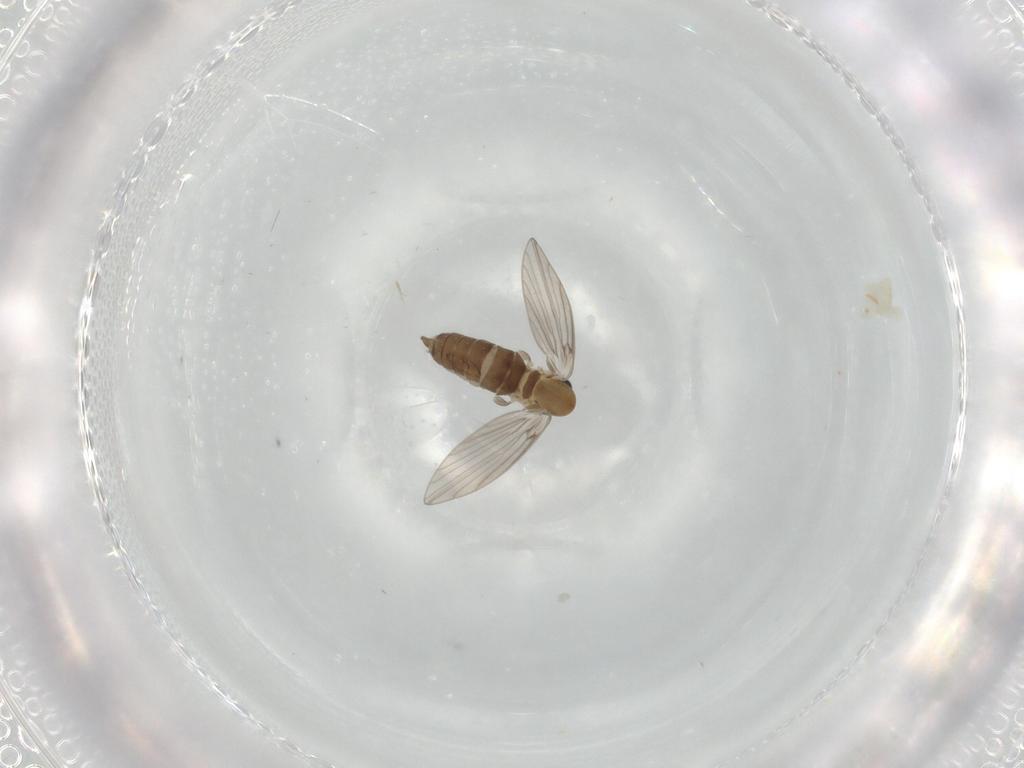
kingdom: Animalia
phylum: Arthropoda
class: Insecta
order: Diptera
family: Psychodidae
